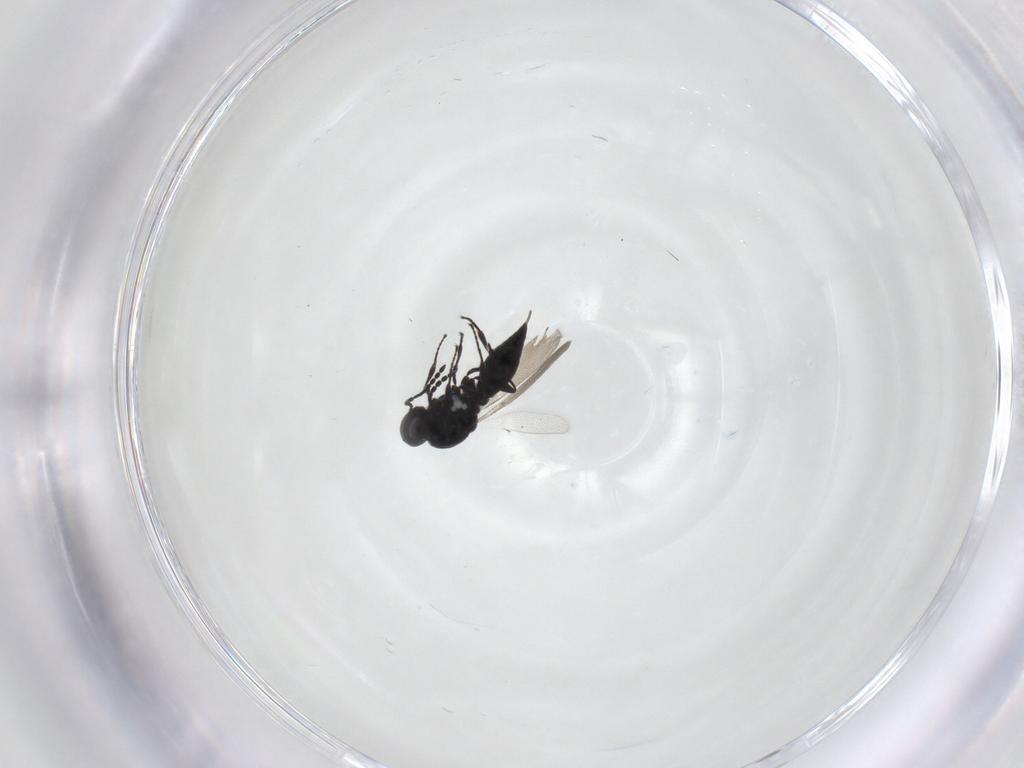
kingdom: Animalia
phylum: Arthropoda
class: Insecta
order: Hymenoptera
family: Platygastridae
